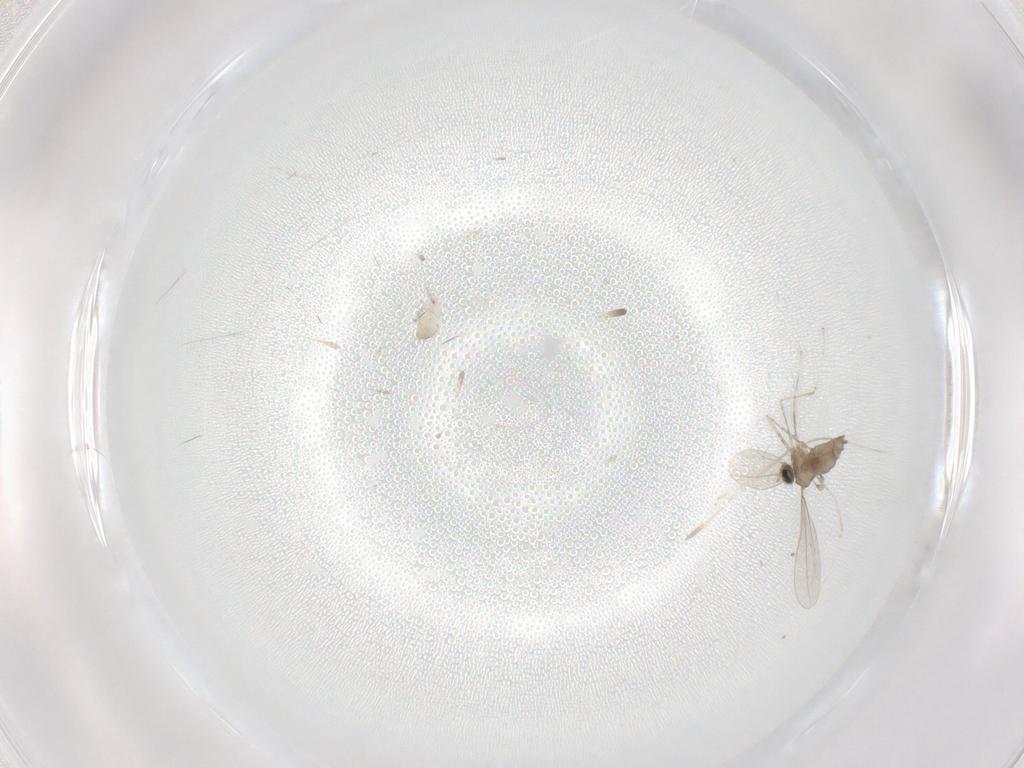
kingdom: Animalia
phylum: Arthropoda
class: Insecta
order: Diptera
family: Cecidomyiidae
